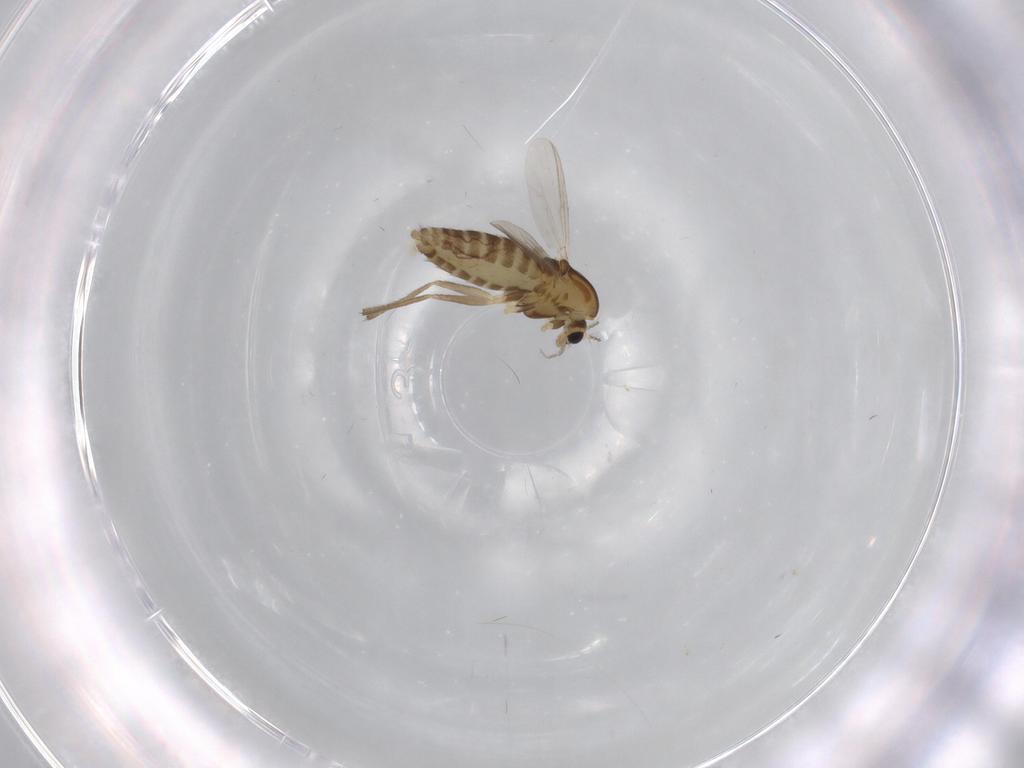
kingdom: Animalia
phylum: Arthropoda
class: Insecta
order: Diptera
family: Chironomidae
